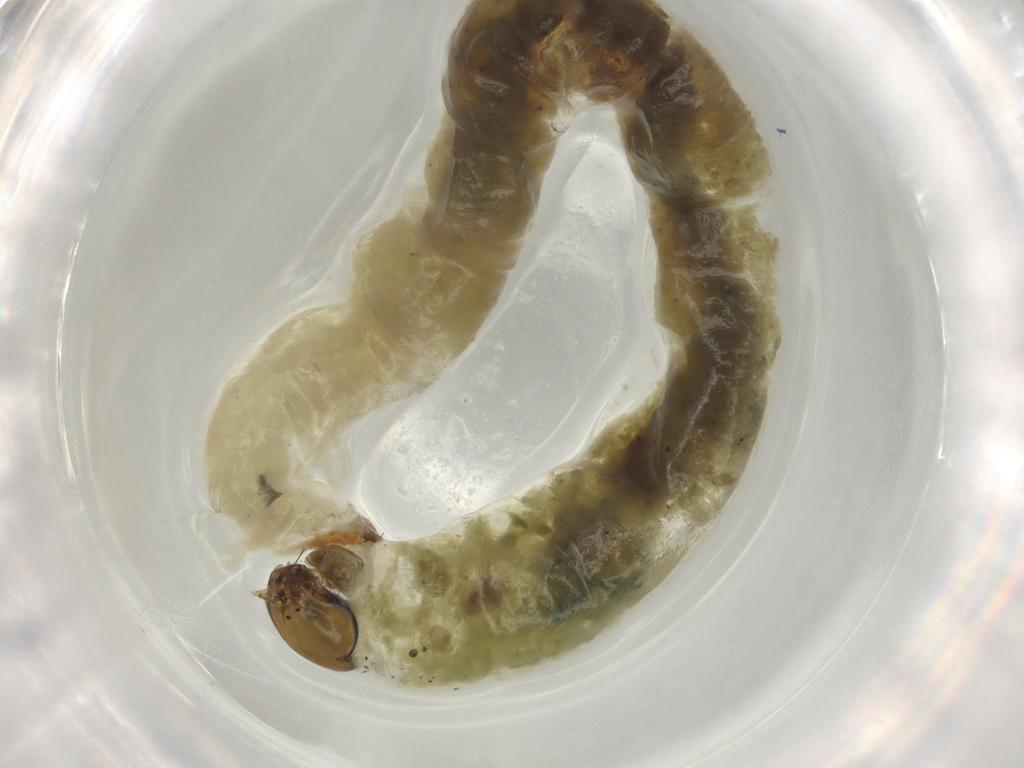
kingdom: Animalia
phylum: Arthropoda
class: Insecta
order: Diptera
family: Chironomidae
